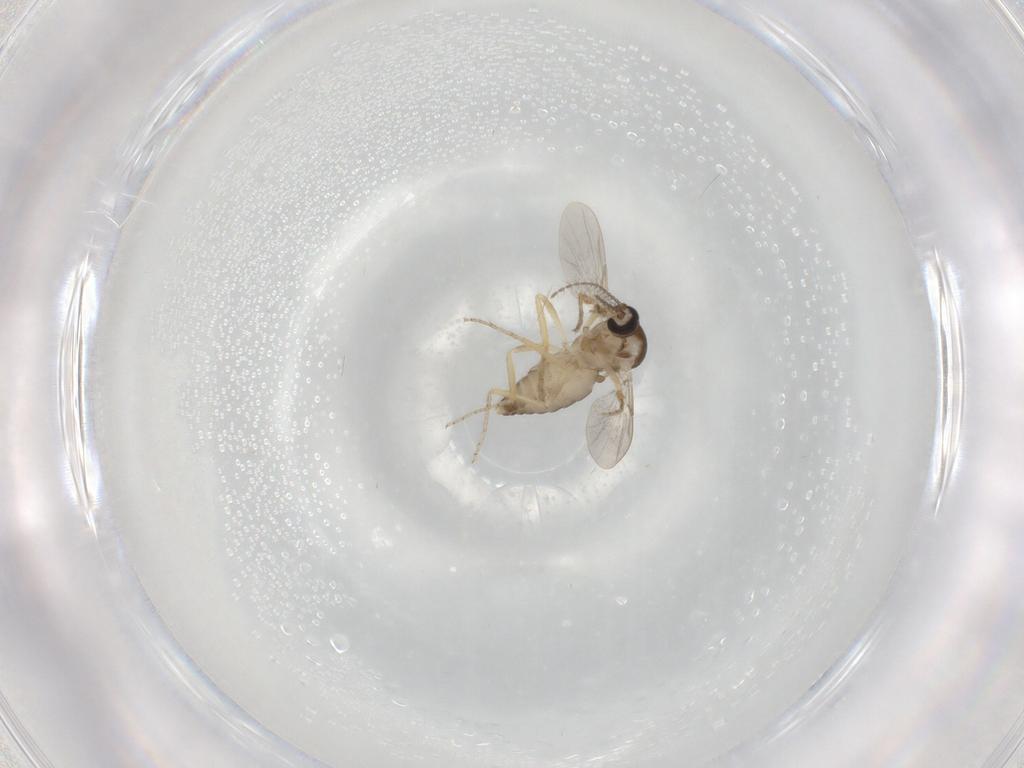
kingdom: Animalia
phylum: Arthropoda
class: Insecta
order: Diptera
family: Ceratopogonidae
